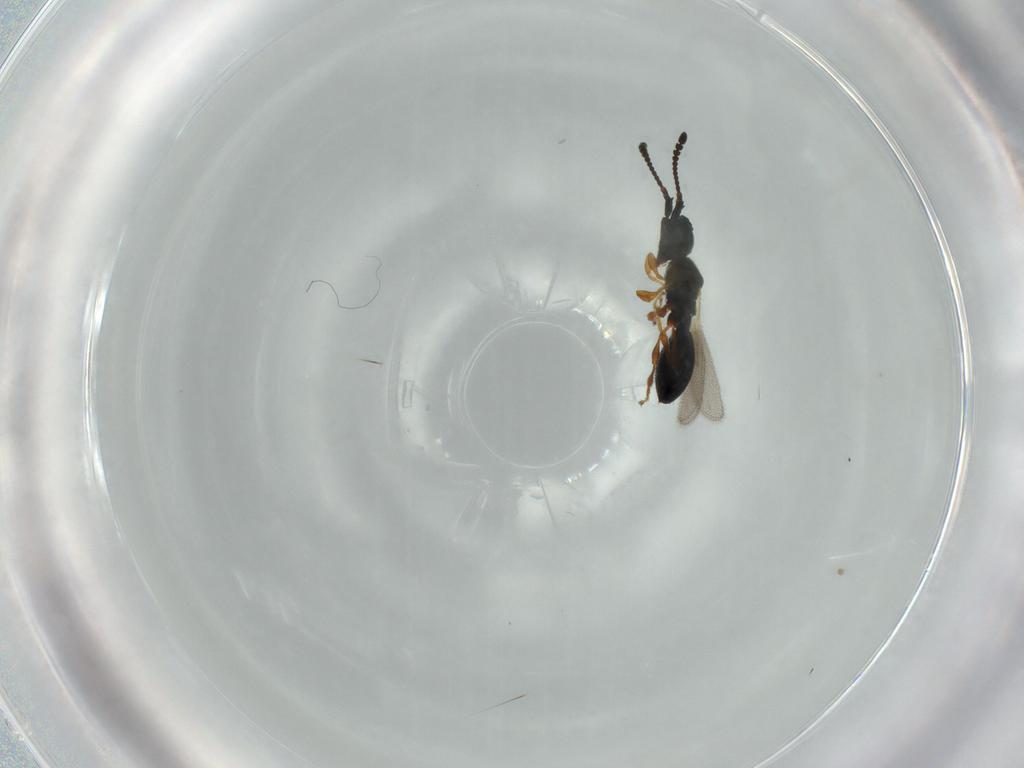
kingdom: Animalia
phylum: Arthropoda
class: Insecta
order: Hymenoptera
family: Diapriidae
